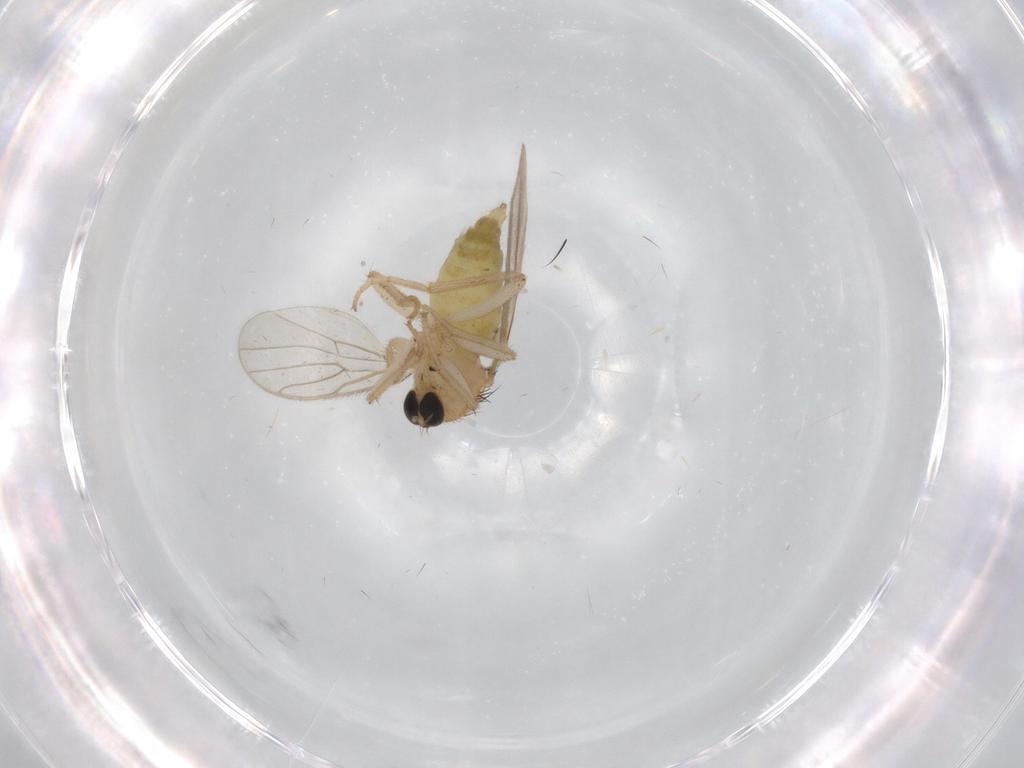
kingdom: Animalia
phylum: Arthropoda
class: Insecta
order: Diptera
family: Hybotidae
